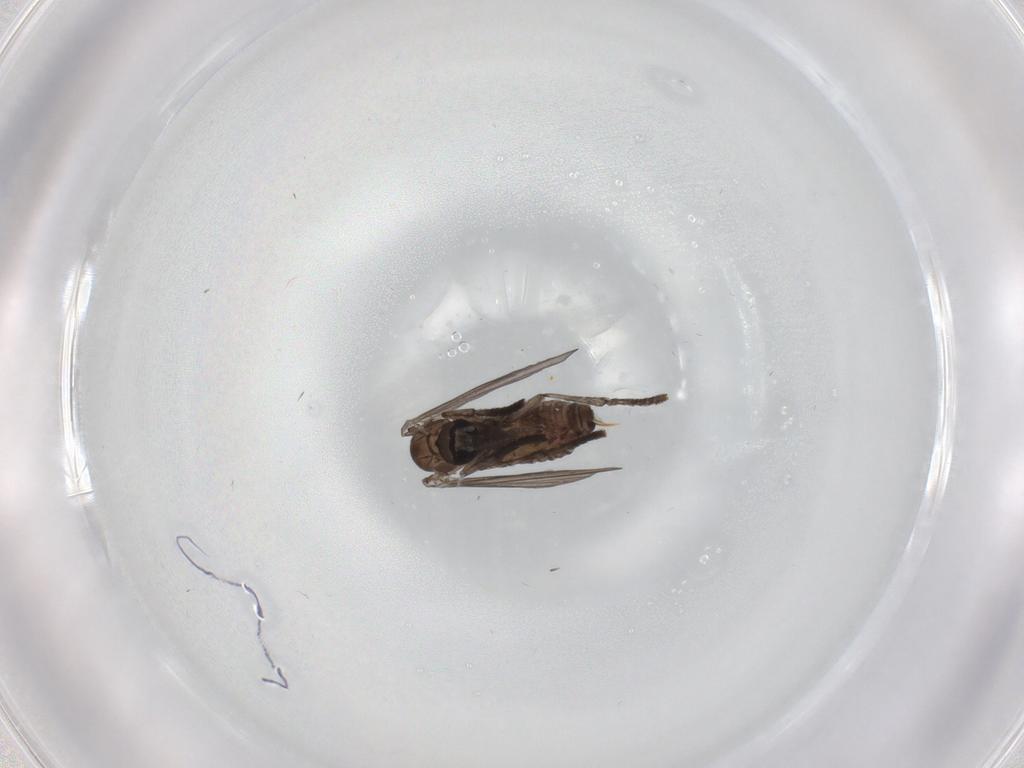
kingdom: Animalia
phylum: Arthropoda
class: Insecta
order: Diptera
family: Psychodidae
